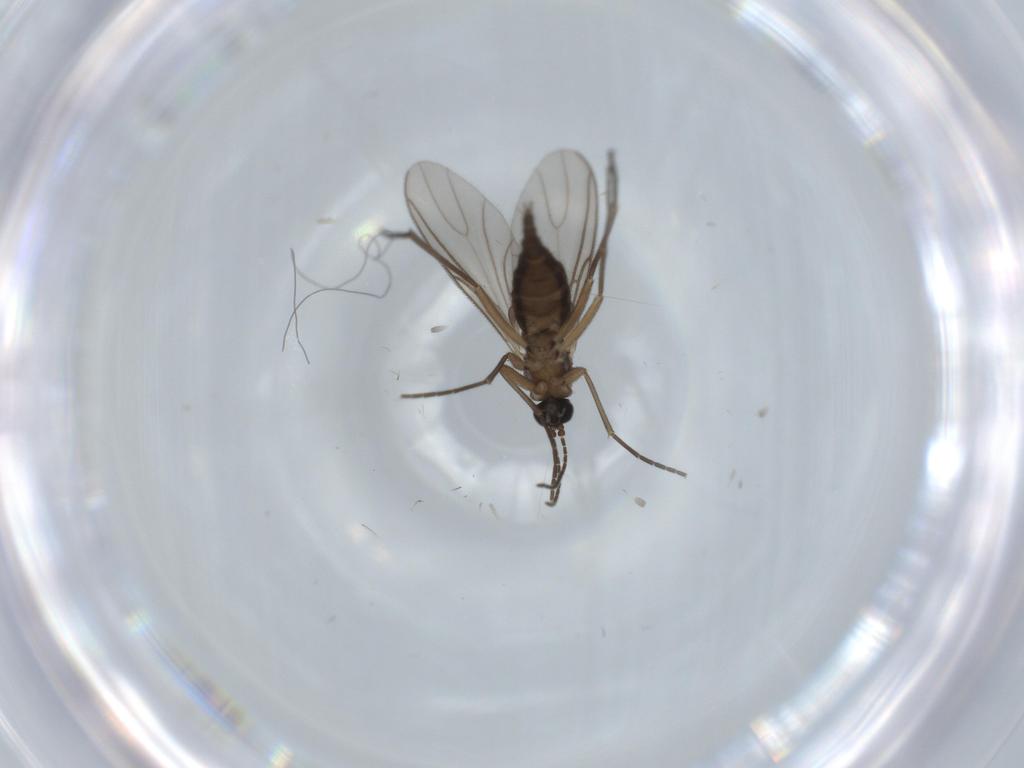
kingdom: Animalia
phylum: Arthropoda
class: Insecta
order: Diptera
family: Sciaridae
